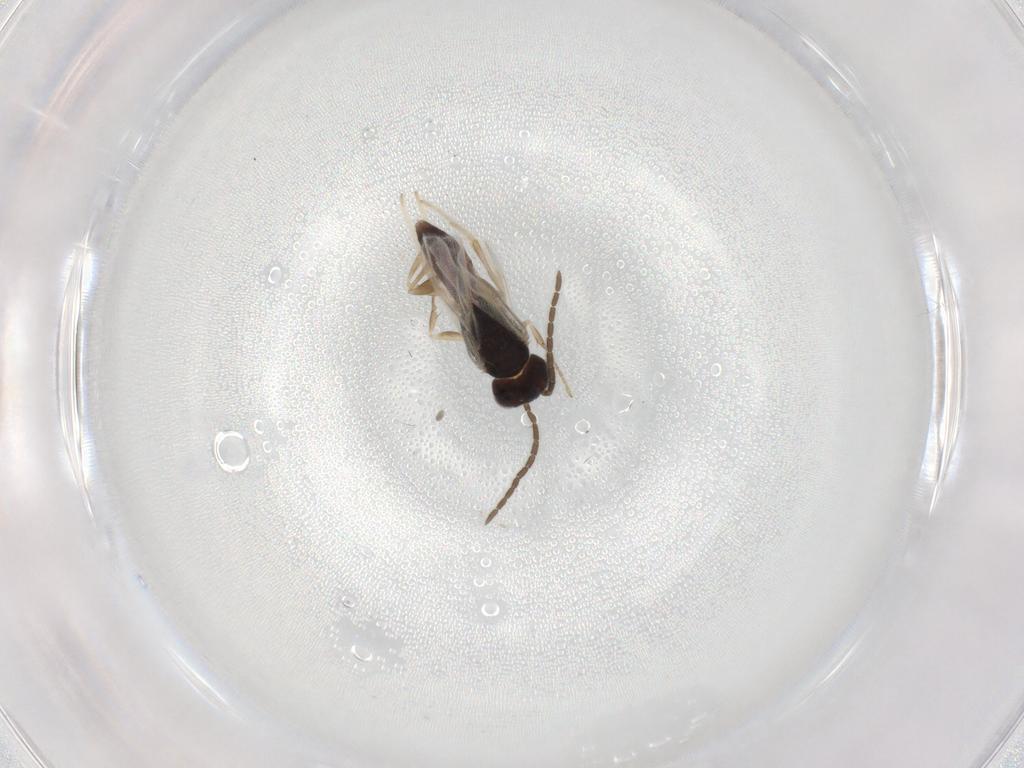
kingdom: Animalia
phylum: Arthropoda
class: Insecta
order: Hymenoptera
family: Dryinidae
